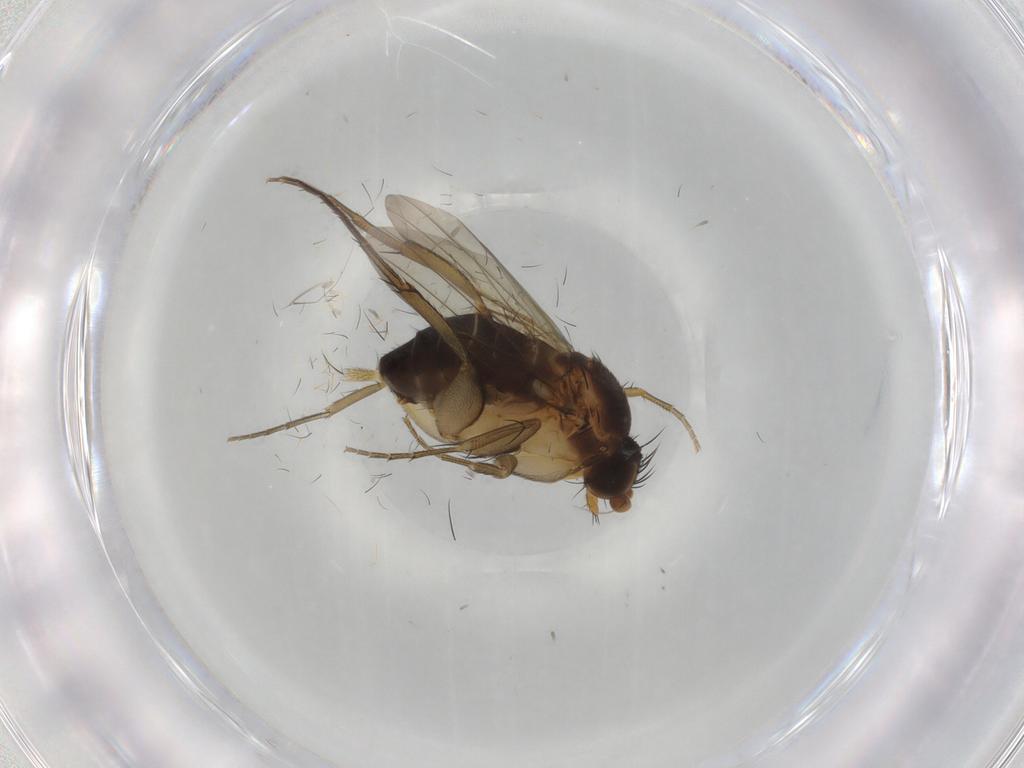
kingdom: Animalia
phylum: Arthropoda
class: Insecta
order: Diptera
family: Phoridae
